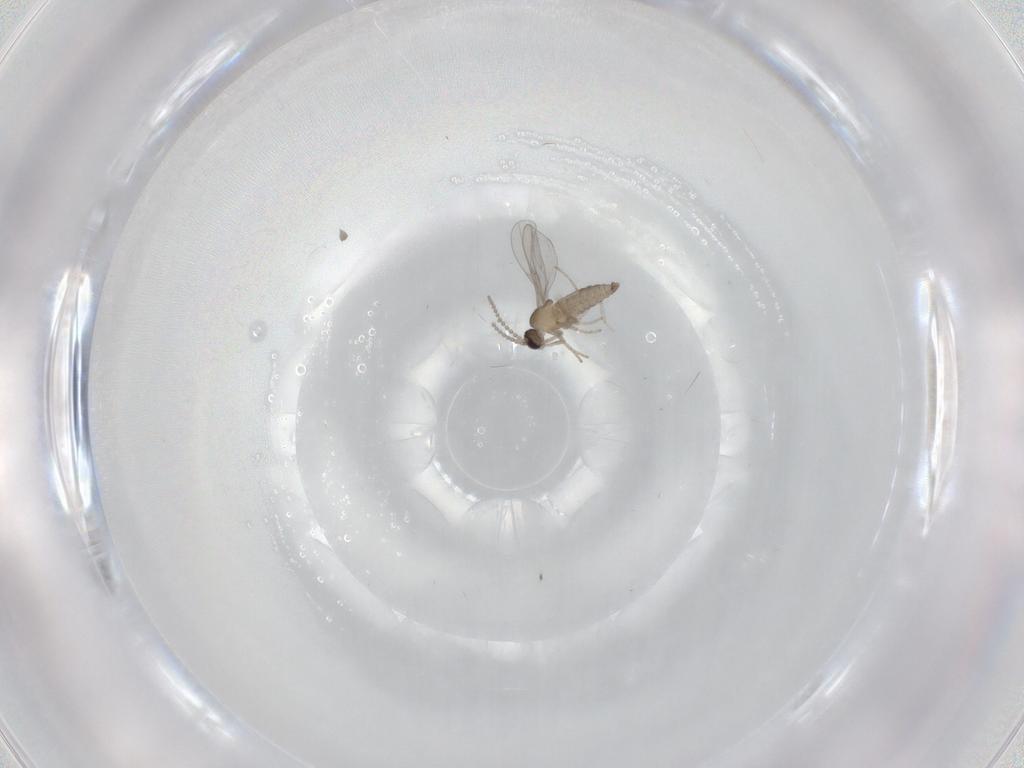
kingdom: Animalia
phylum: Arthropoda
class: Insecta
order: Diptera
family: Cecidomyiidae
